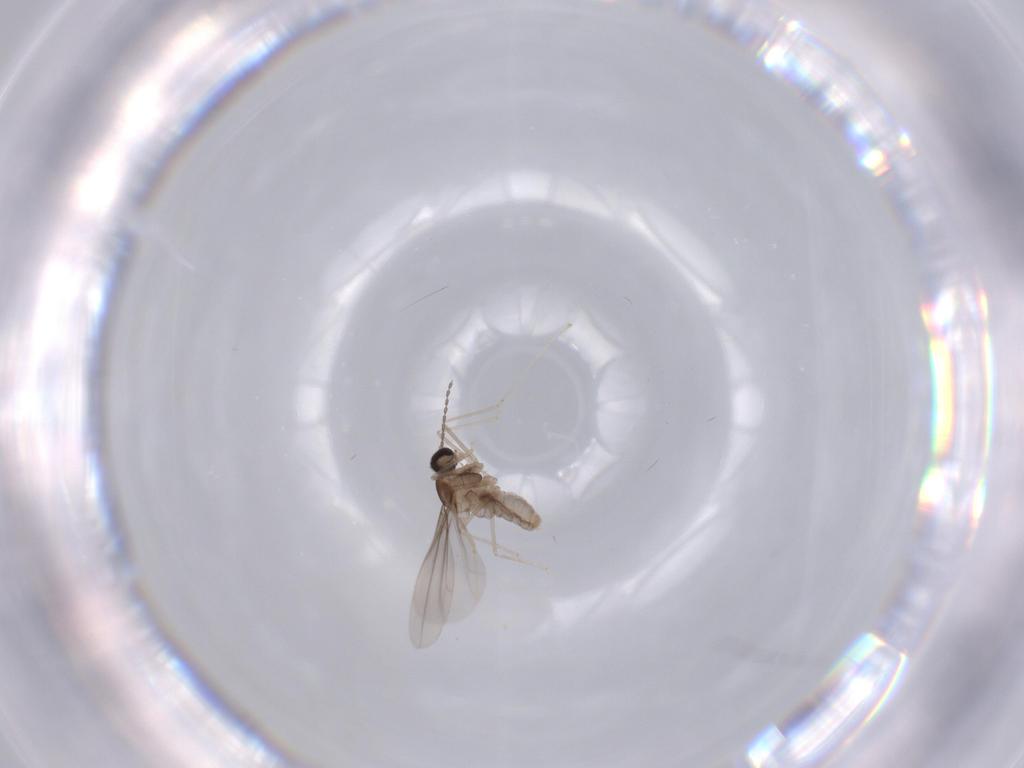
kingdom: Animalia
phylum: Arthropoda
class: Insecta
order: Diptera
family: Cecidomyiidae
